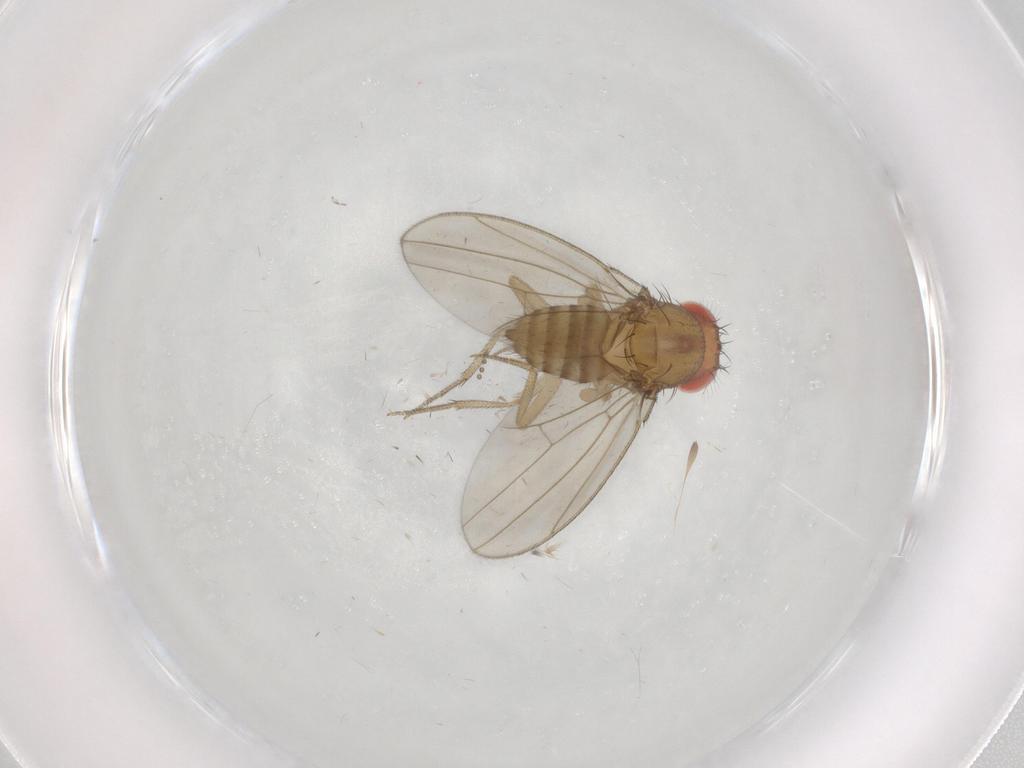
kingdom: Animalia
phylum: Arthropoda
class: Insecta
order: Diptera
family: Drosophilidae
